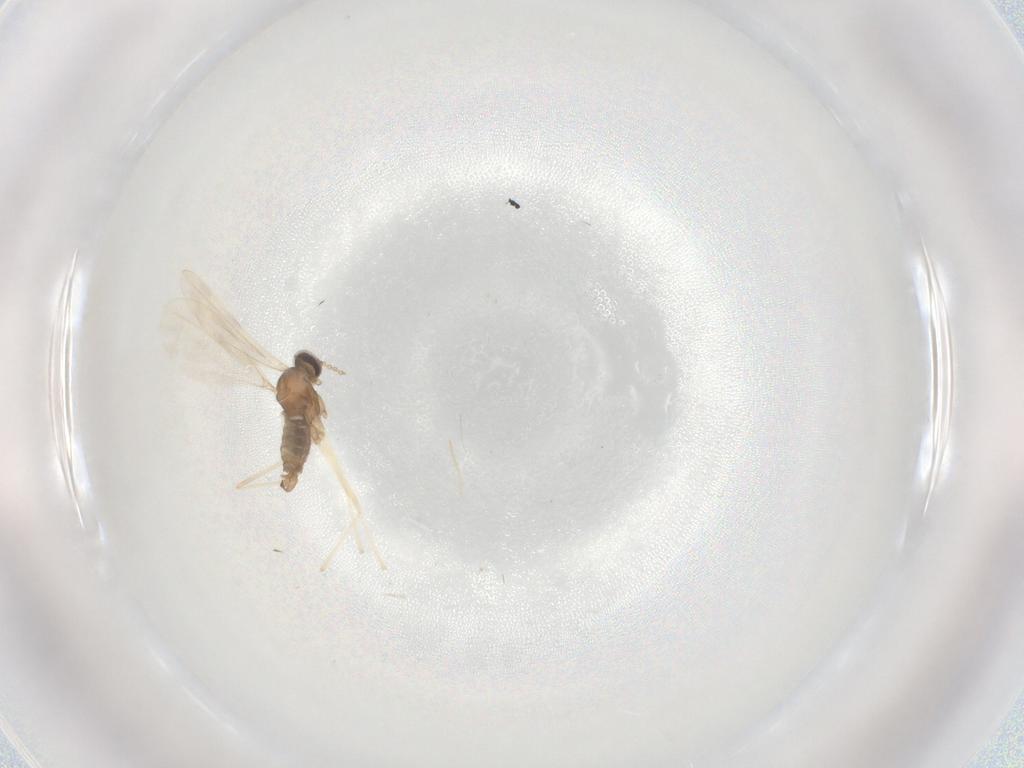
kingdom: Animalia
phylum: Arthropoda
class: Insecta
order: Diptera
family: Cecidomyiidae
